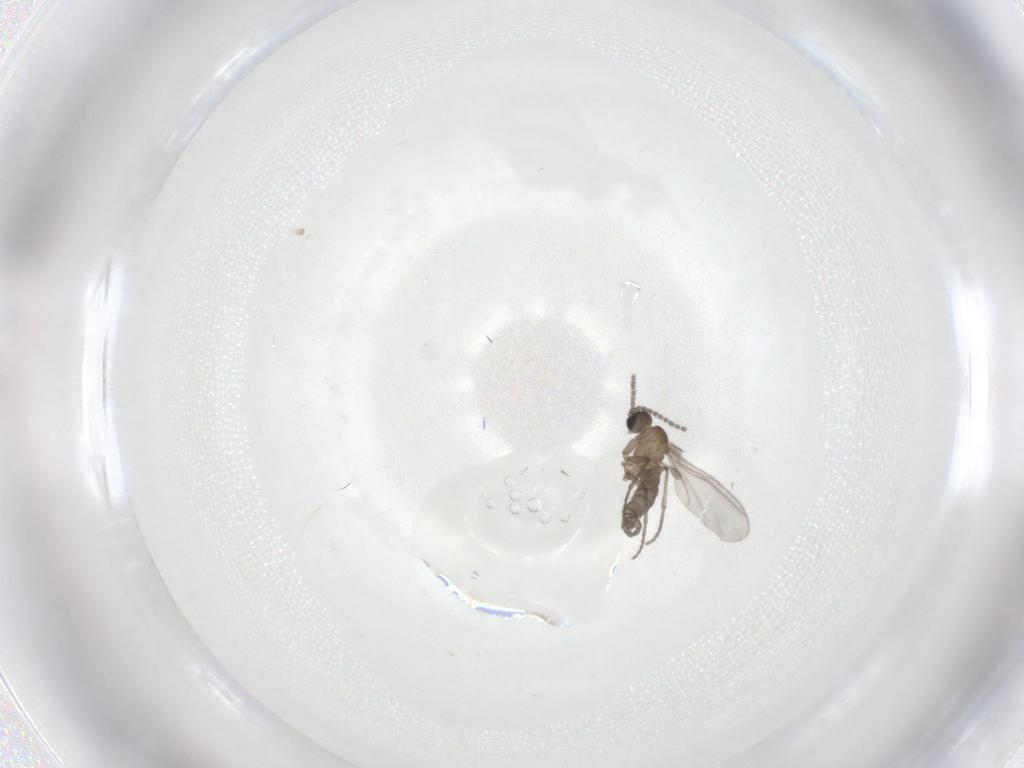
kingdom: Animalia
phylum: Arthropoda
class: Insecta
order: Diptera
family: Sciaridae
